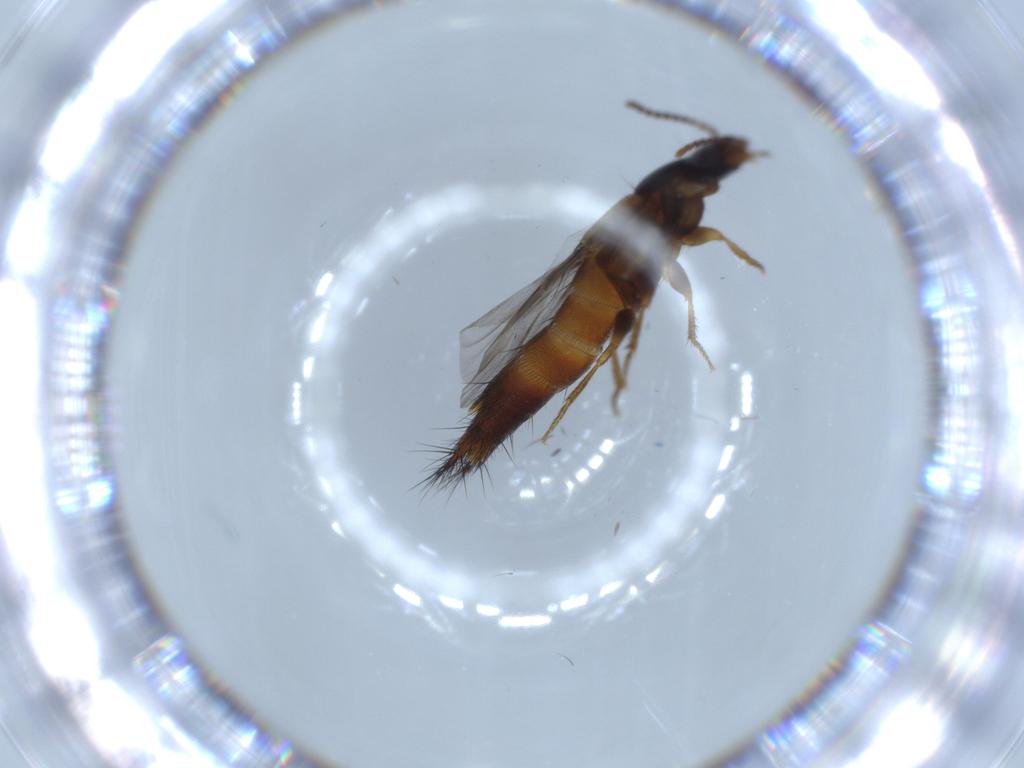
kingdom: Animalia
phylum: Arthropoda
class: Insecta
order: Coleoptera
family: Staphylinidae
